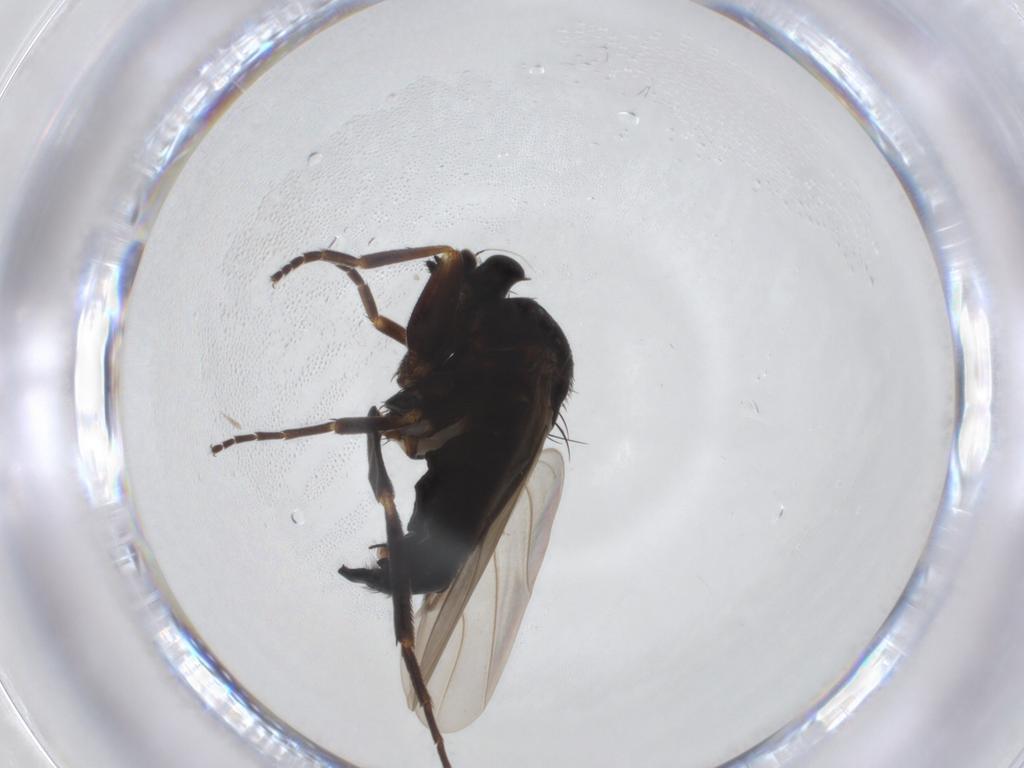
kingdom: Animalia
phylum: Arthropoda
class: Insecta
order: Diptera
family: Phoridae
